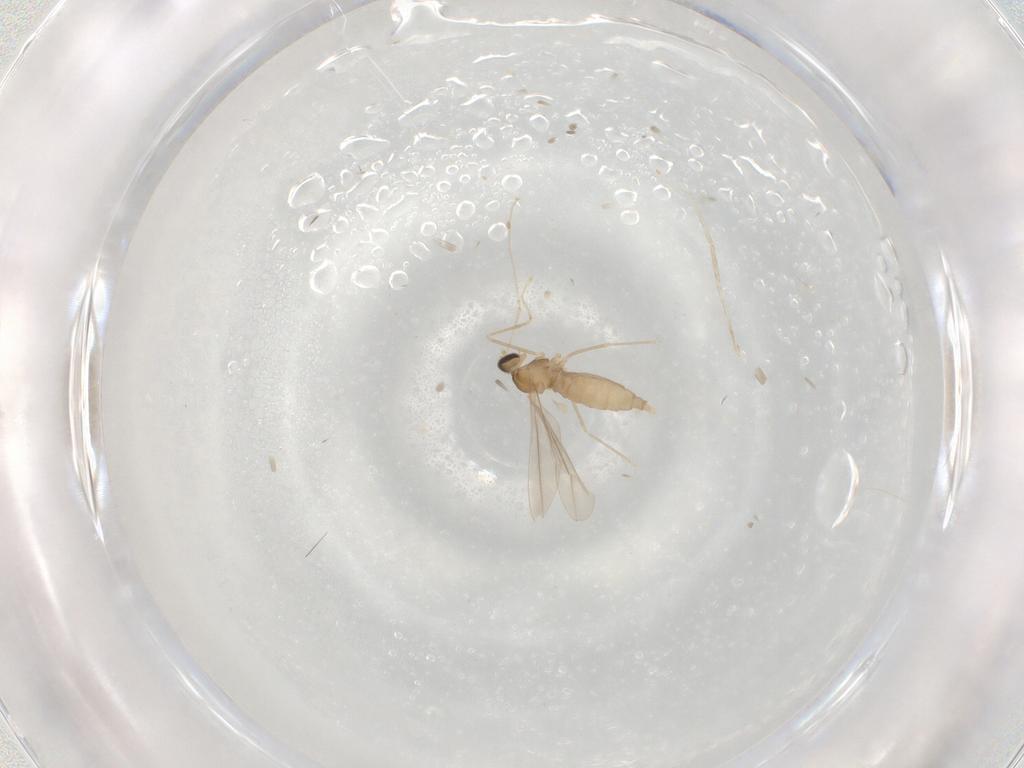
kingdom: Animalia
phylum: Arthropoda
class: Insecta
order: Diptera
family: Cecidomyiidae
